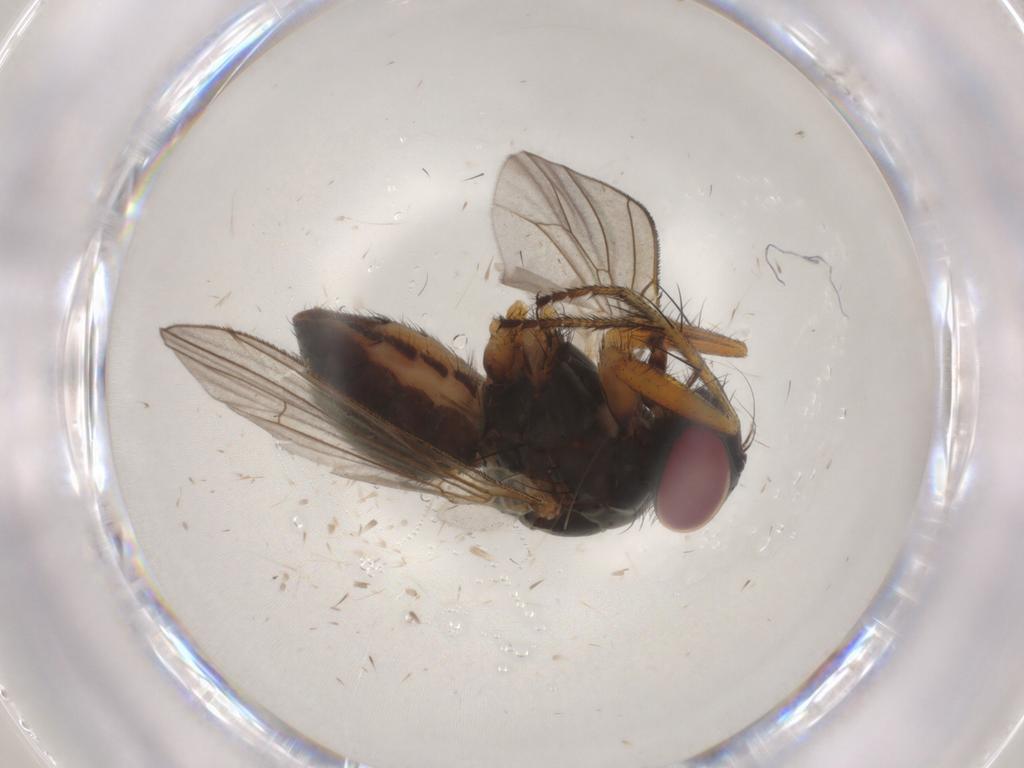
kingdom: Animalia
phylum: Arthropoda
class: Insecta
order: Diptera
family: Muscidae
